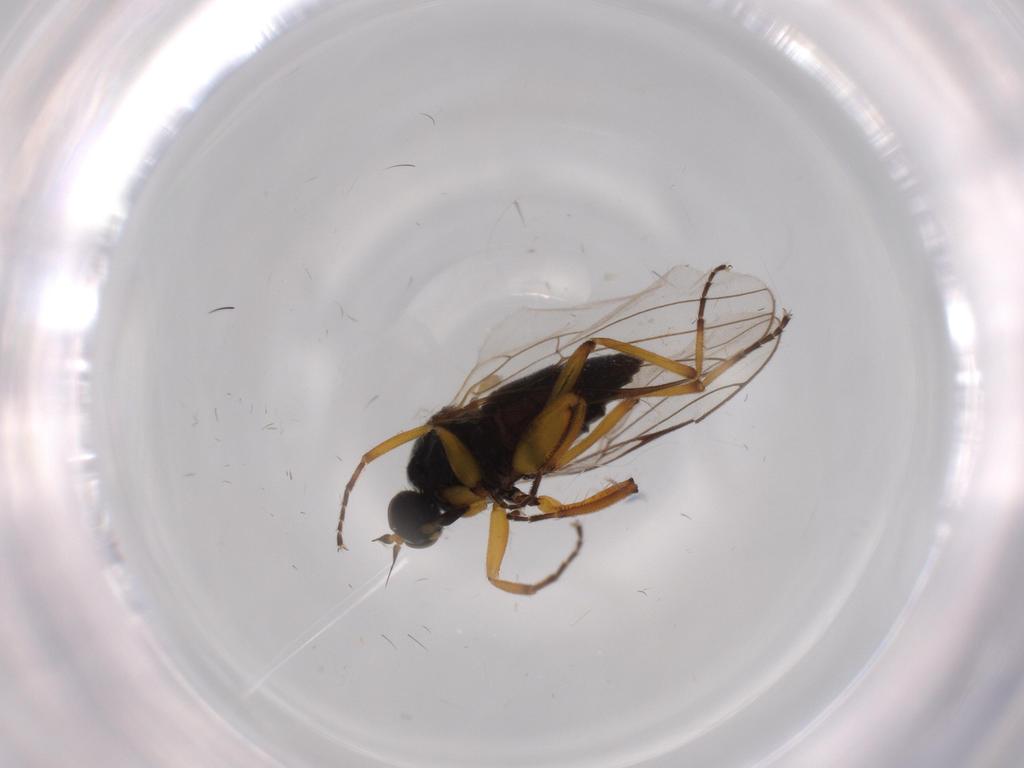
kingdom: Animalia
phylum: Arthropoda
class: Insecta
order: Diptera
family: Hybotidae
